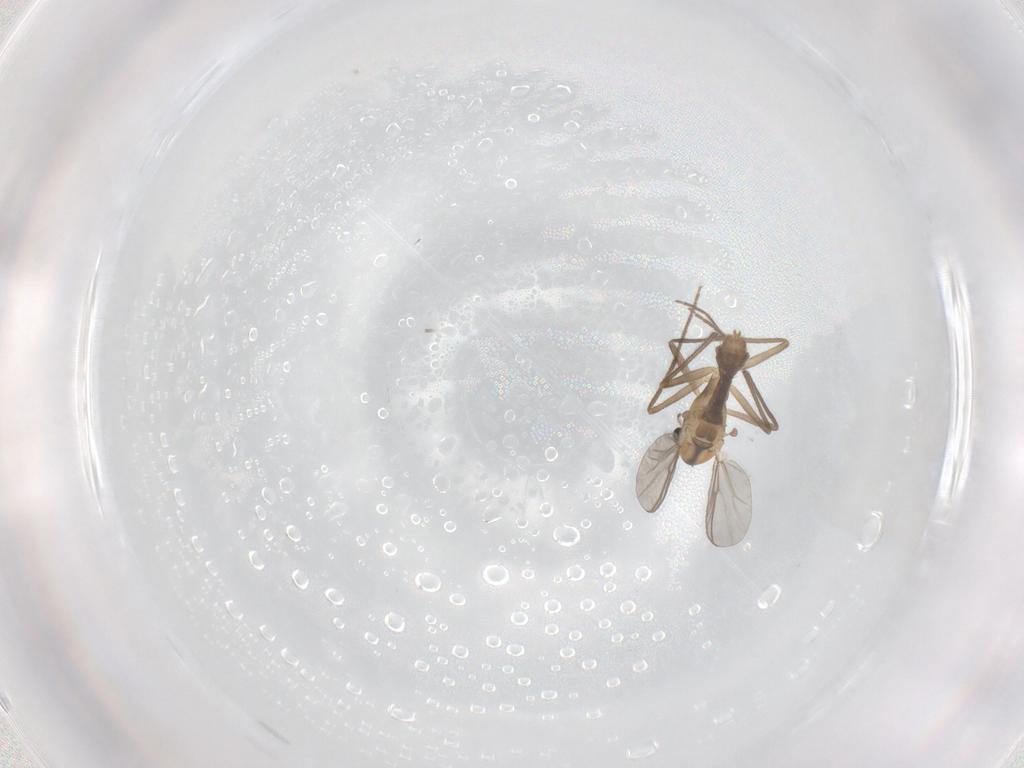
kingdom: Animalia
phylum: Arthropoda
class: Insecta
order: Diptera
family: Chironomidae
